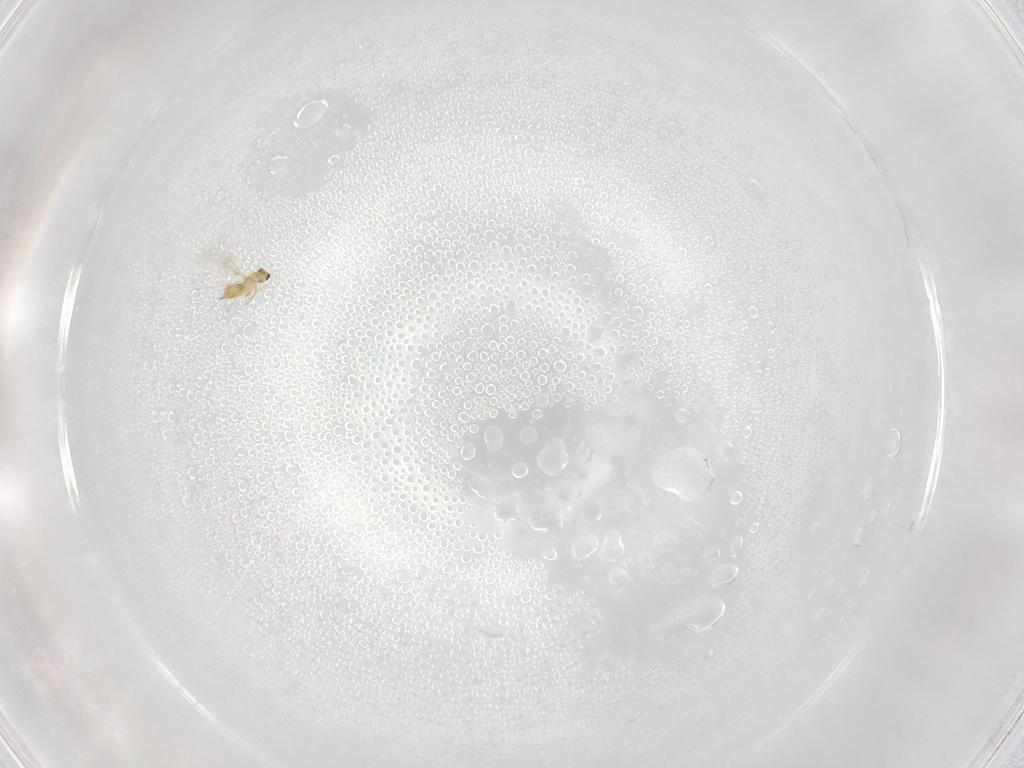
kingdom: Animalia
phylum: Arthropoda
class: Insecta
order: Hymenoptera
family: Mymaridae
